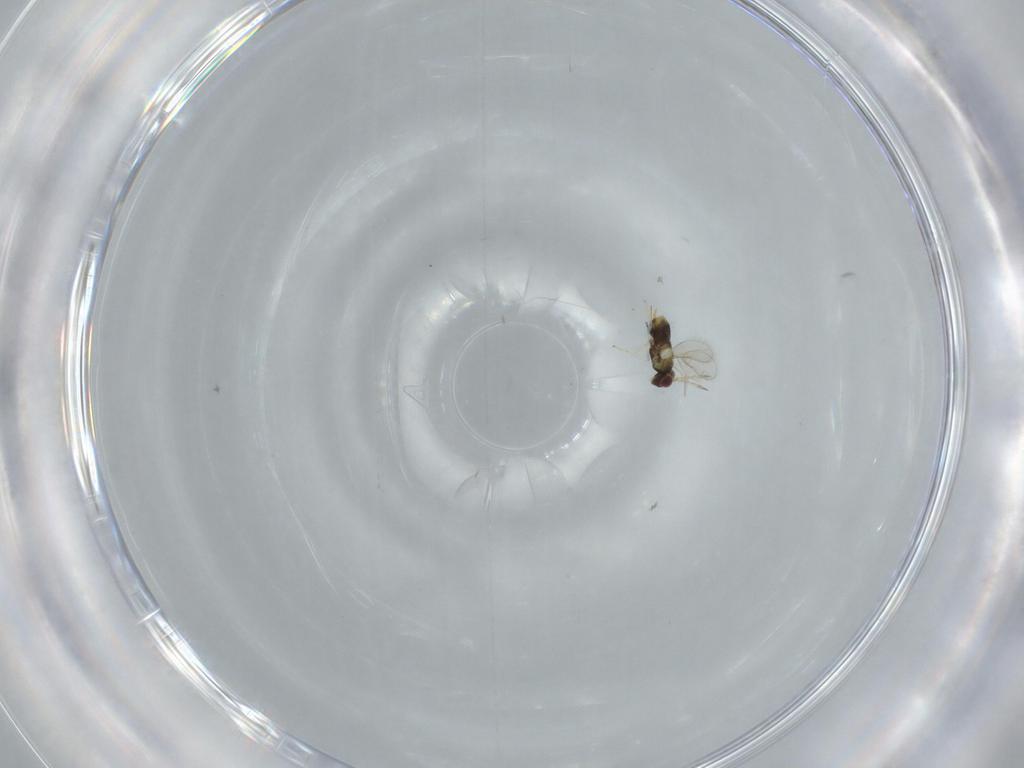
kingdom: Animalia
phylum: Arthropoda
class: Insecta
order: Hymenoptera
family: Aphelinidae
